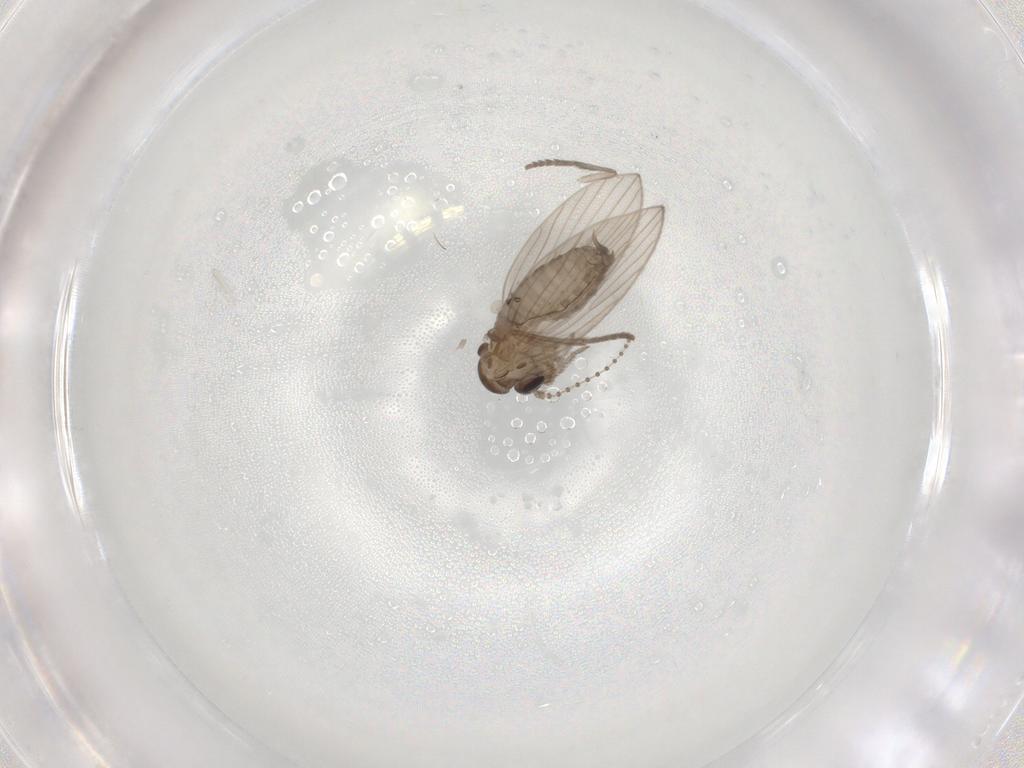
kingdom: Animalia
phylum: Arthropoda
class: Insecta
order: Diptera
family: Psychodidae
